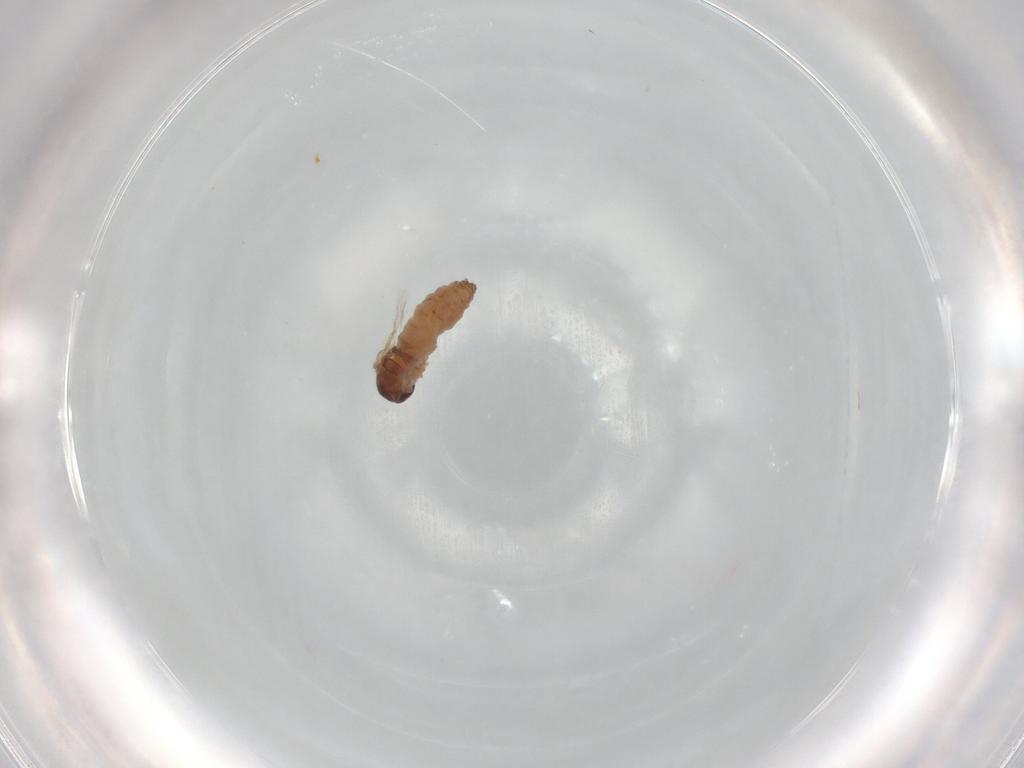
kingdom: Animalia
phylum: Arthropoda
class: Insecta
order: Diptera
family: Psychodidae
